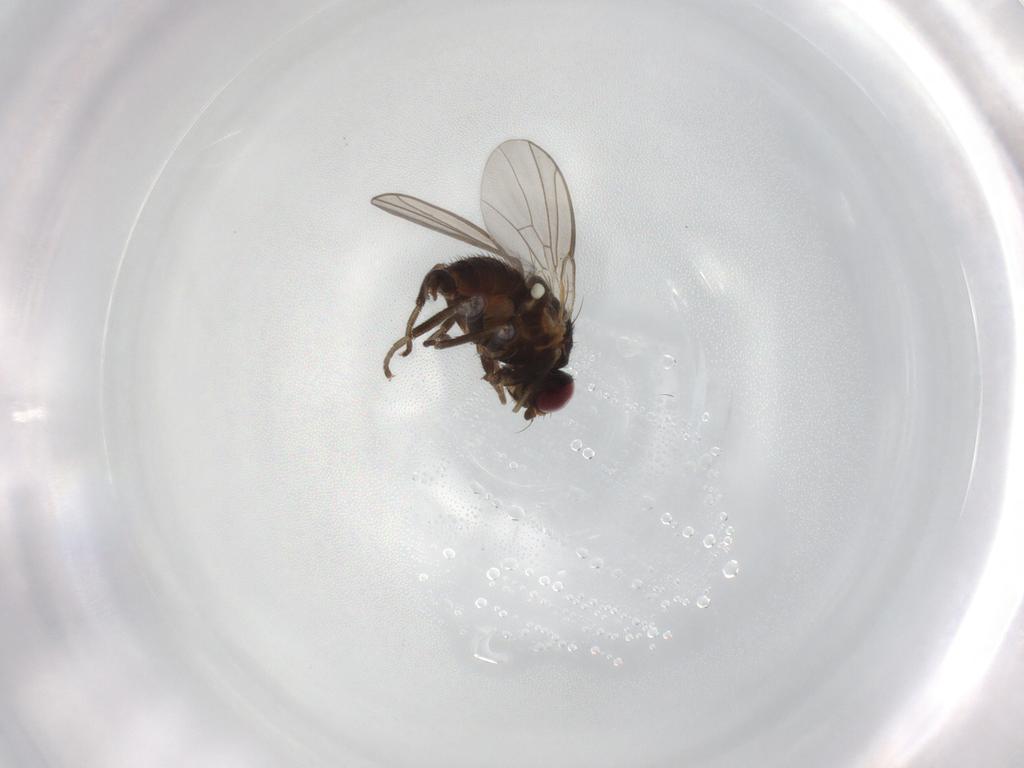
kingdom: Animalia
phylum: Arthropoda
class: Insecta
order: Diptera
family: Agromyzidae
